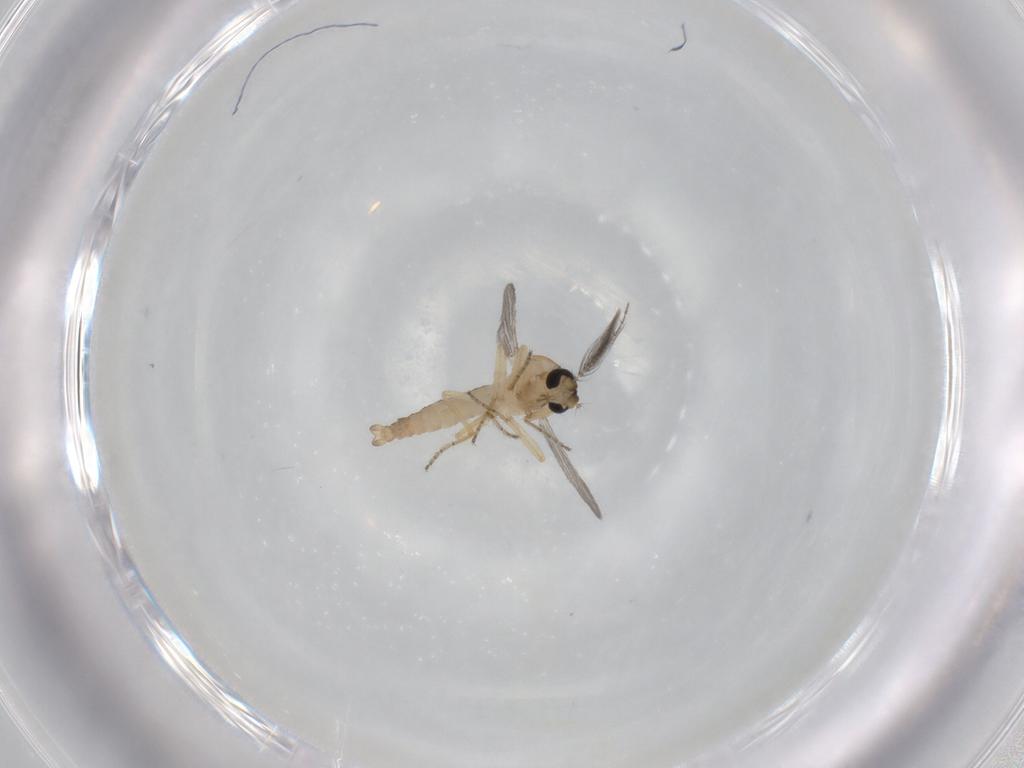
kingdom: Animalia
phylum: Arthropoda
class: Insecta
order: Diptera
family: Ceratopogonidae
